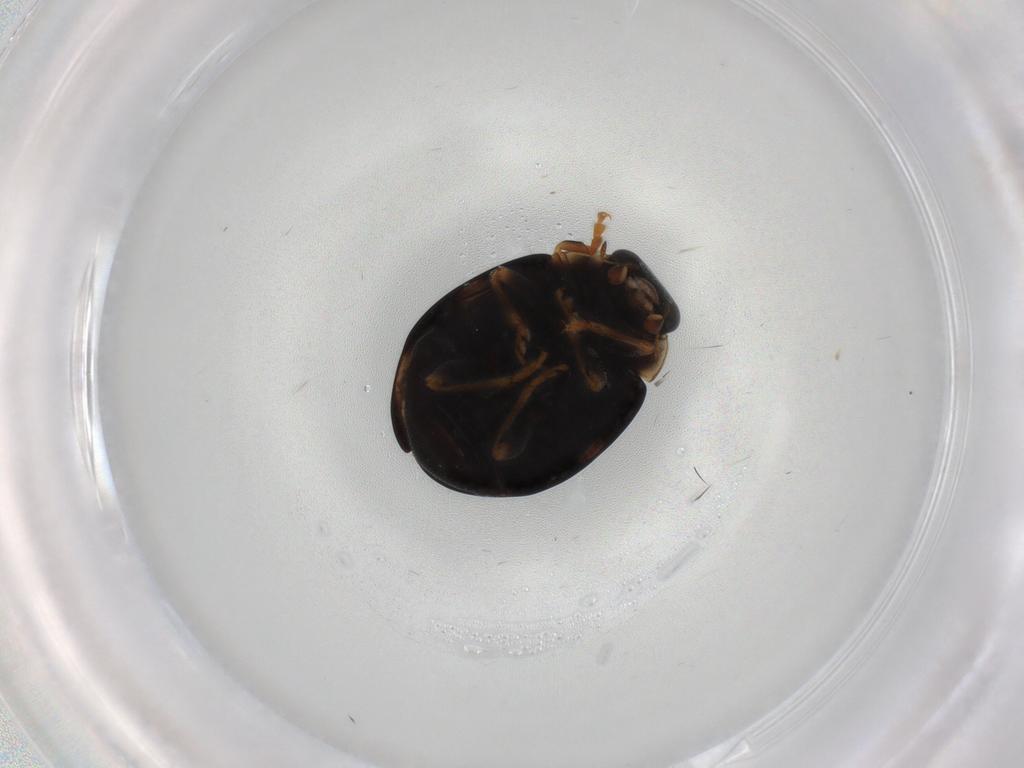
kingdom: Animalia
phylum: Arthropoda
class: Insecta
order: Coleoptera
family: Coccinellidae
